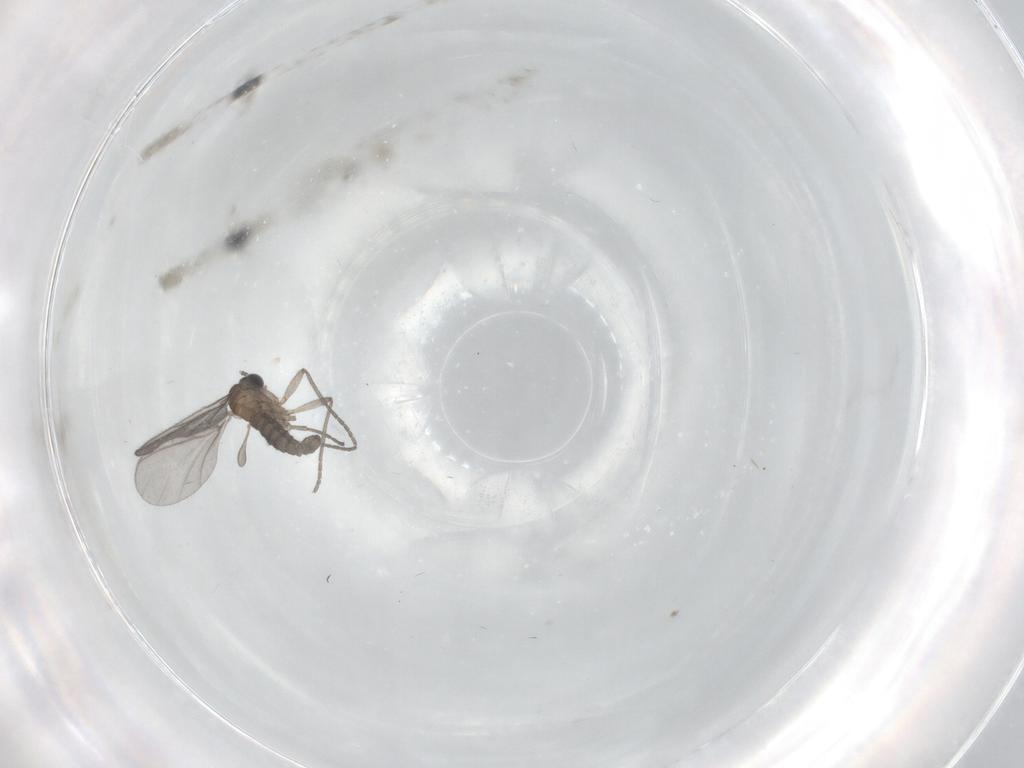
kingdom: Animalia
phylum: Arthropoda
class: Insecta
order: Diptera
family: Sciaridae
